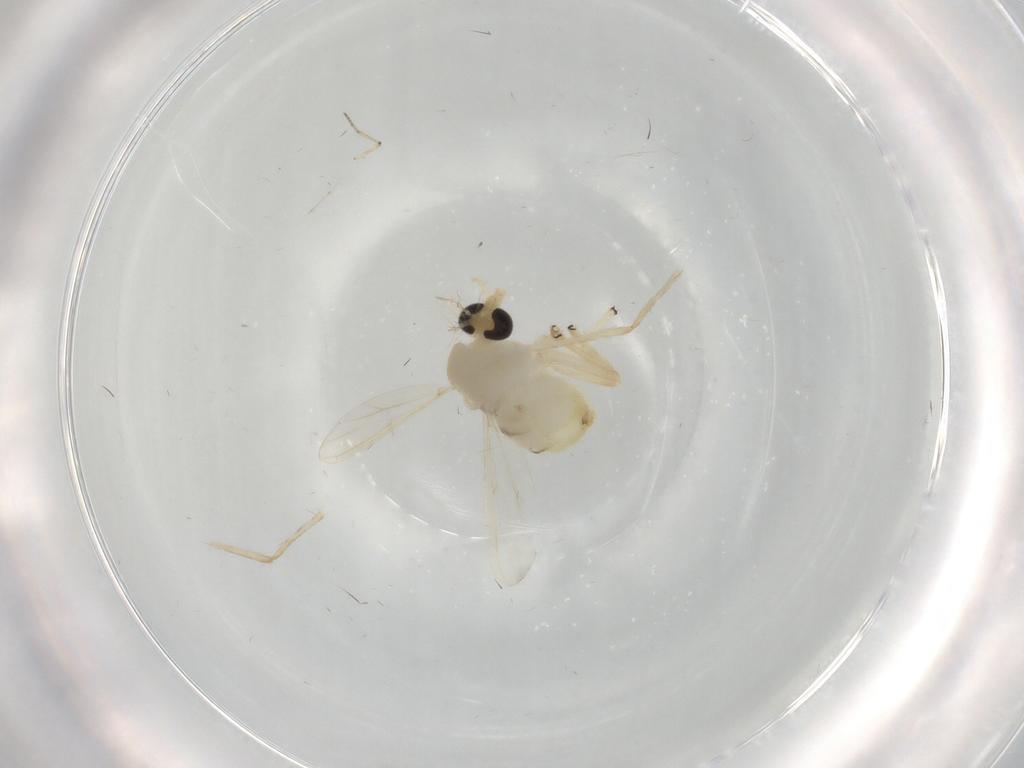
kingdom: Animalia
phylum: Arthropoda
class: Insecta
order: Diptera
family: Chironomidae
